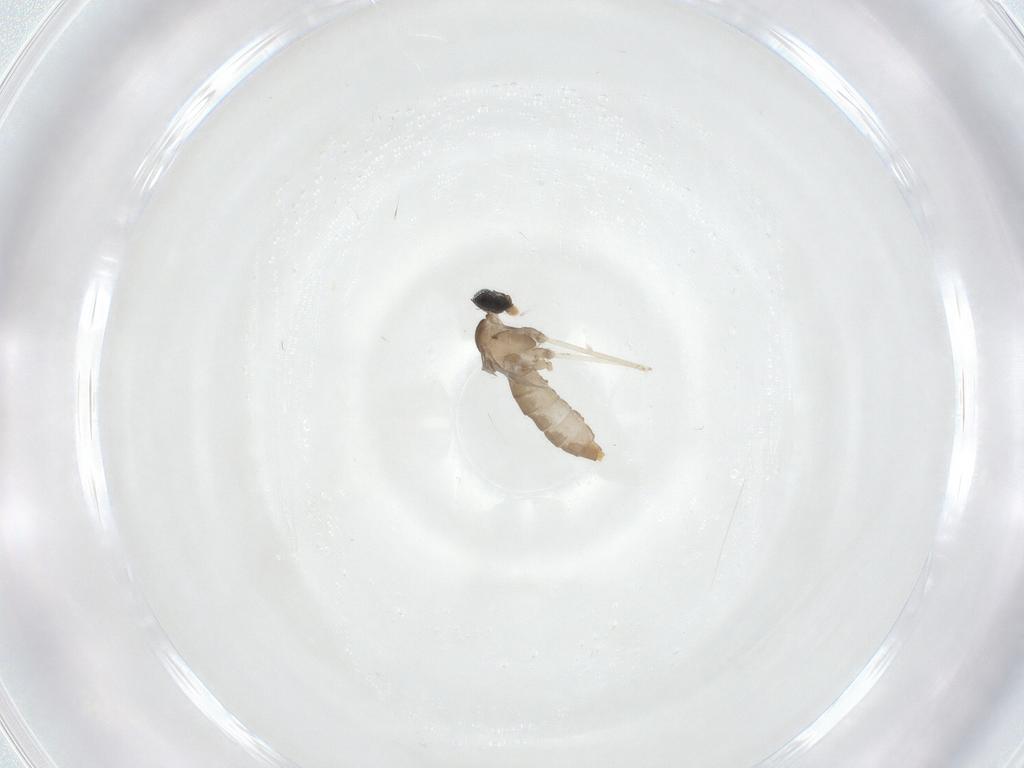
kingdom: Animalia
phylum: Arthropoda
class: Insecta
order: Diptera
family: Cecidomyiidae
